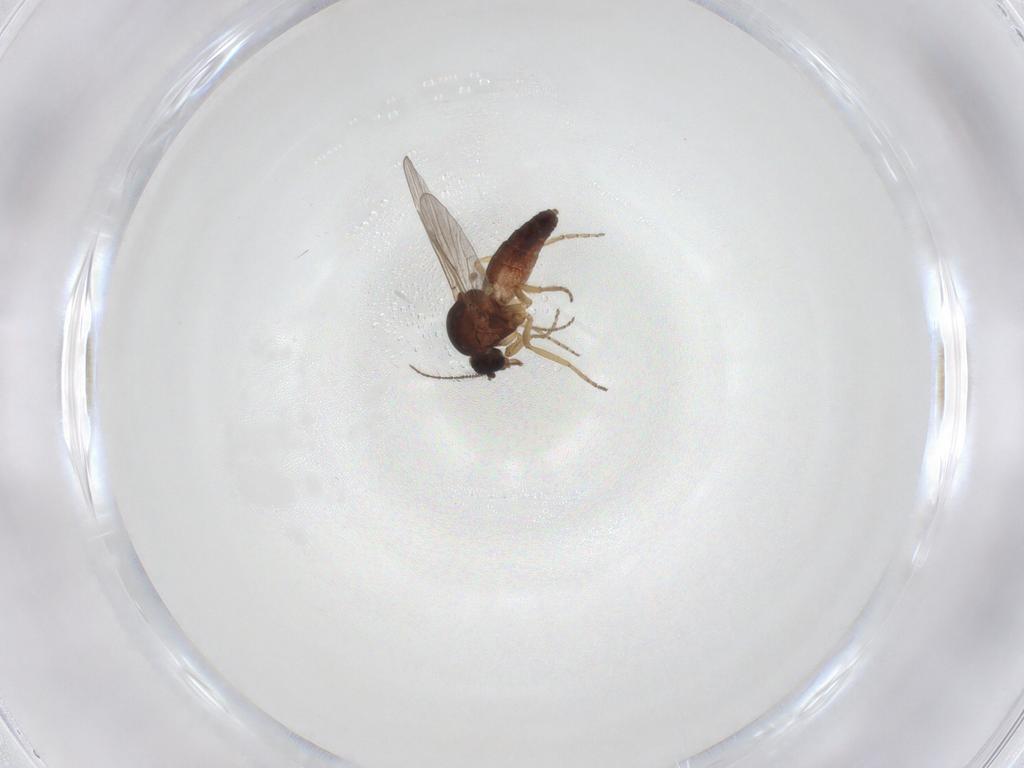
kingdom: Animalia
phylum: Arthropoda
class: Insecta
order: Diptera
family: Ceratopogonidae
